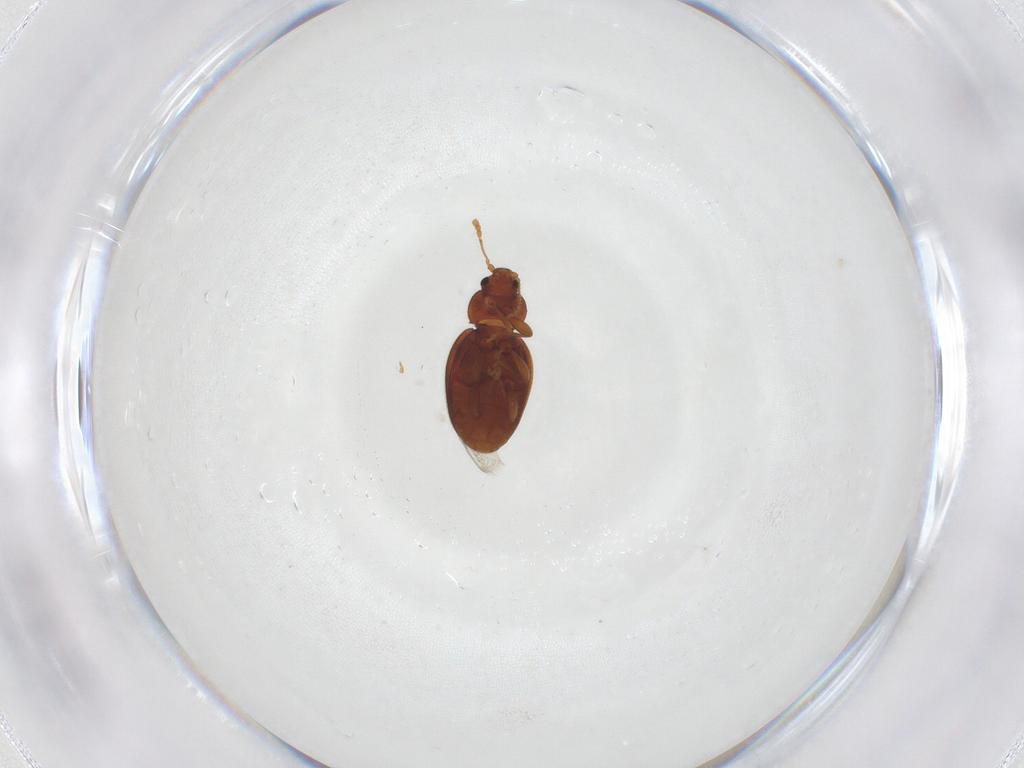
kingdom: Animalia
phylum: Arthropoda
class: Insecta
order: Coleoptera
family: Latridiidae
